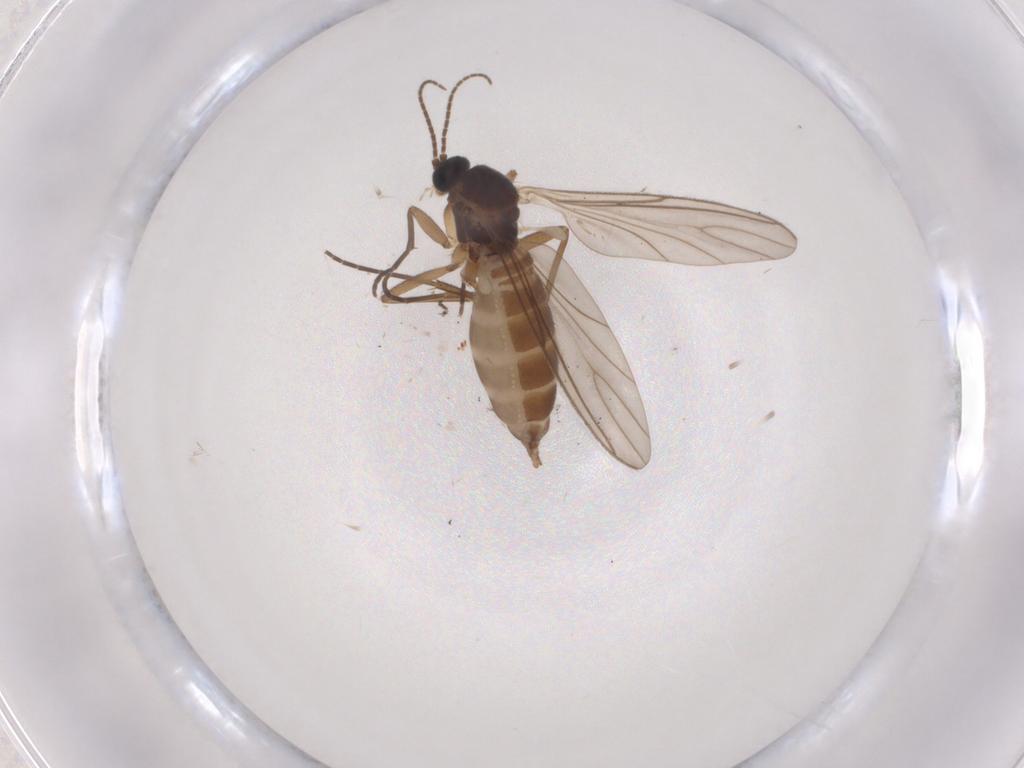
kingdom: Animalia
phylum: Arthropoda
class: Insecta
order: Diptera
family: Sciaridae
